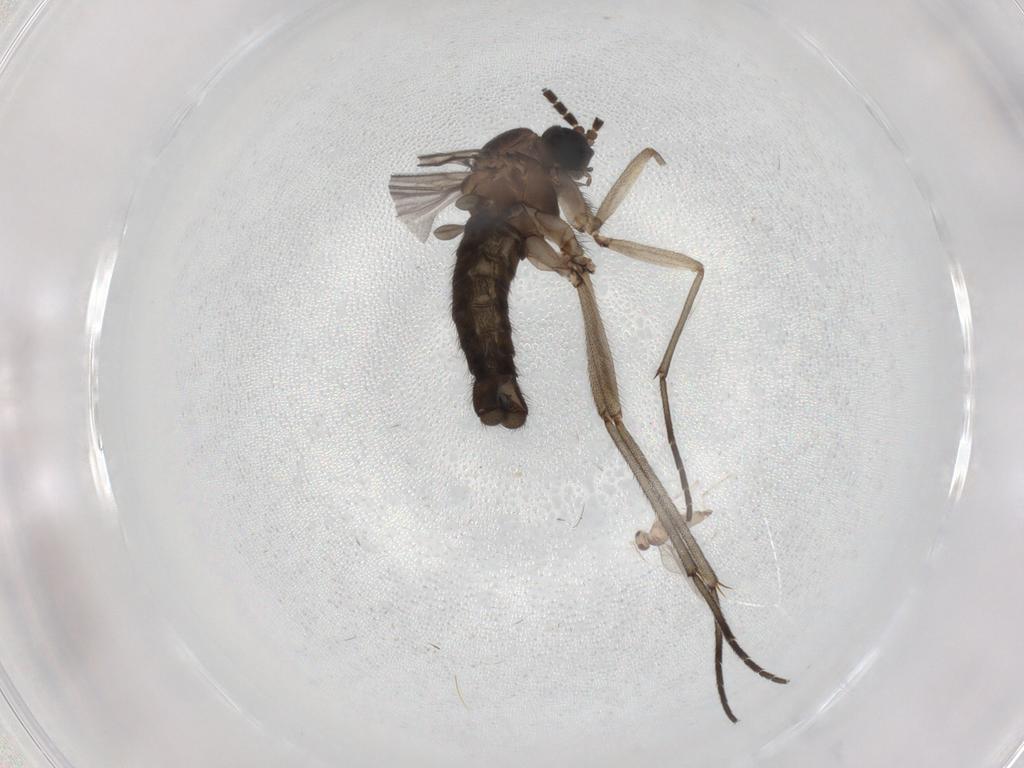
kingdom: Animalia
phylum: Arthropoda
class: Insecta
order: Diptera
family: Sciaridae
